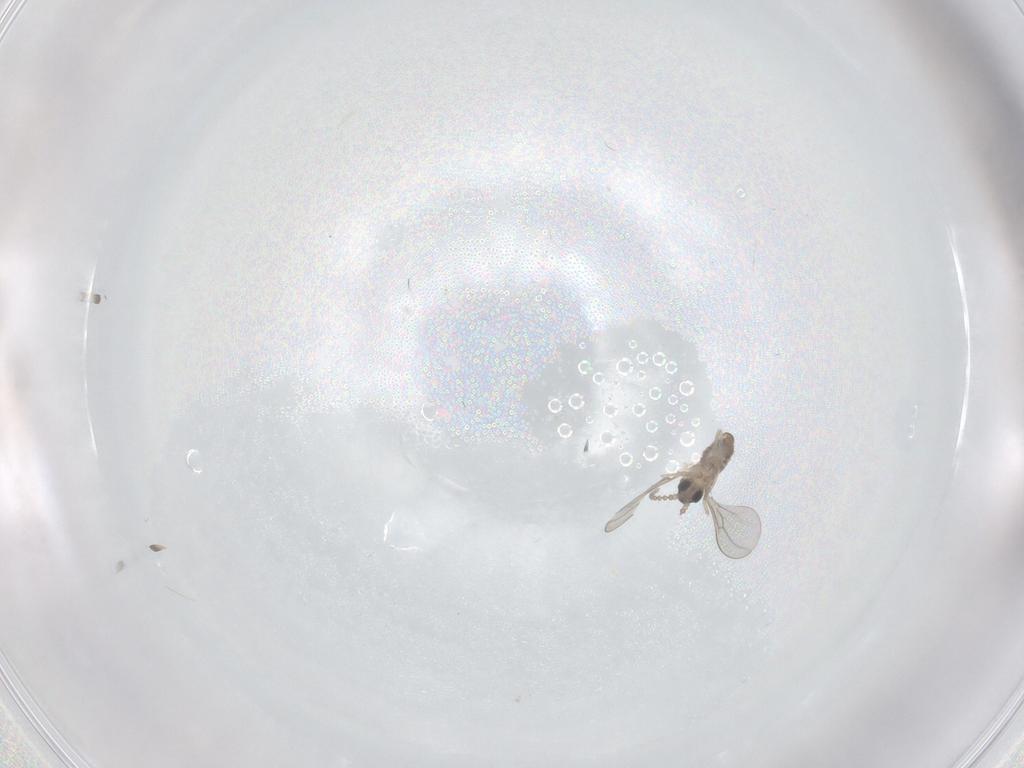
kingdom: Animalia
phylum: Arthropoda
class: Insecta
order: Diptera
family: Cecidomyiidae
